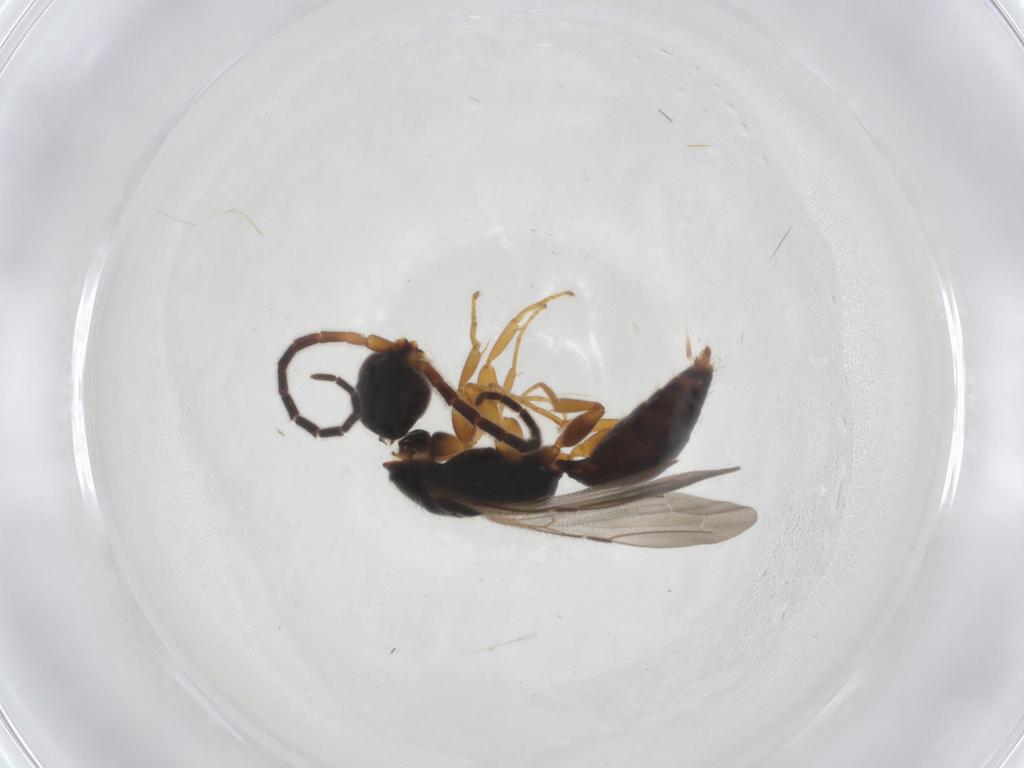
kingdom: Animalia
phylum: Arthropoda
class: Insecta
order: Hymenoptera
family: Bethylidae
